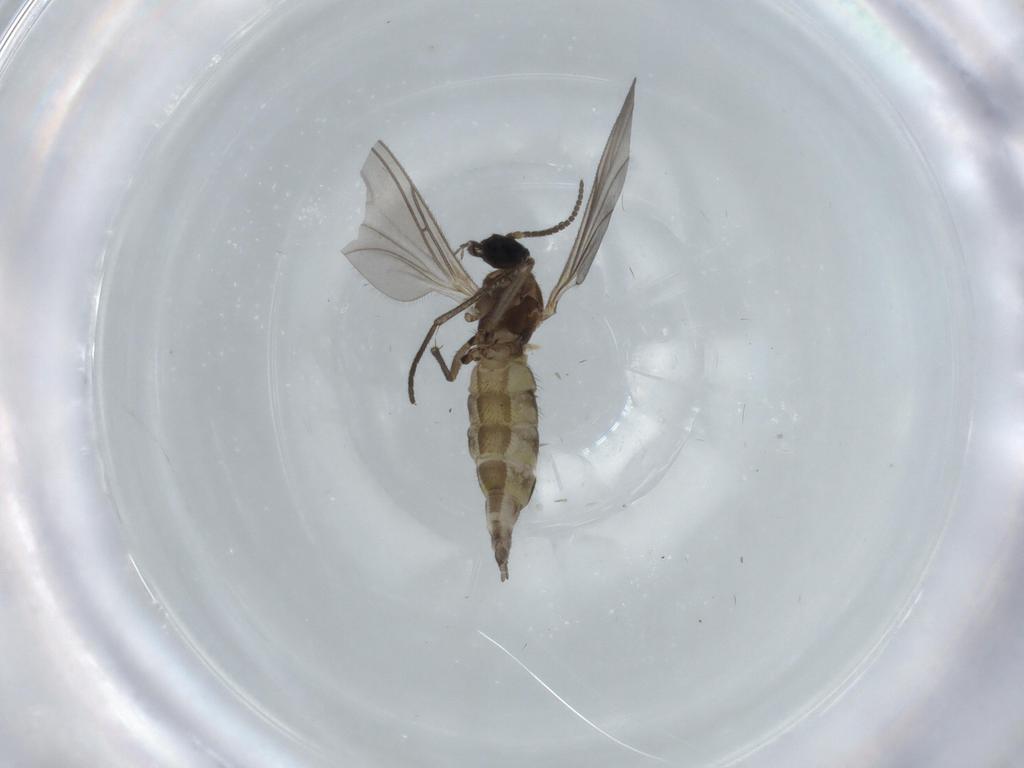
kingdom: Animalia
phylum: Arthropoda
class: Insecta
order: Diptera
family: Sciaridae
